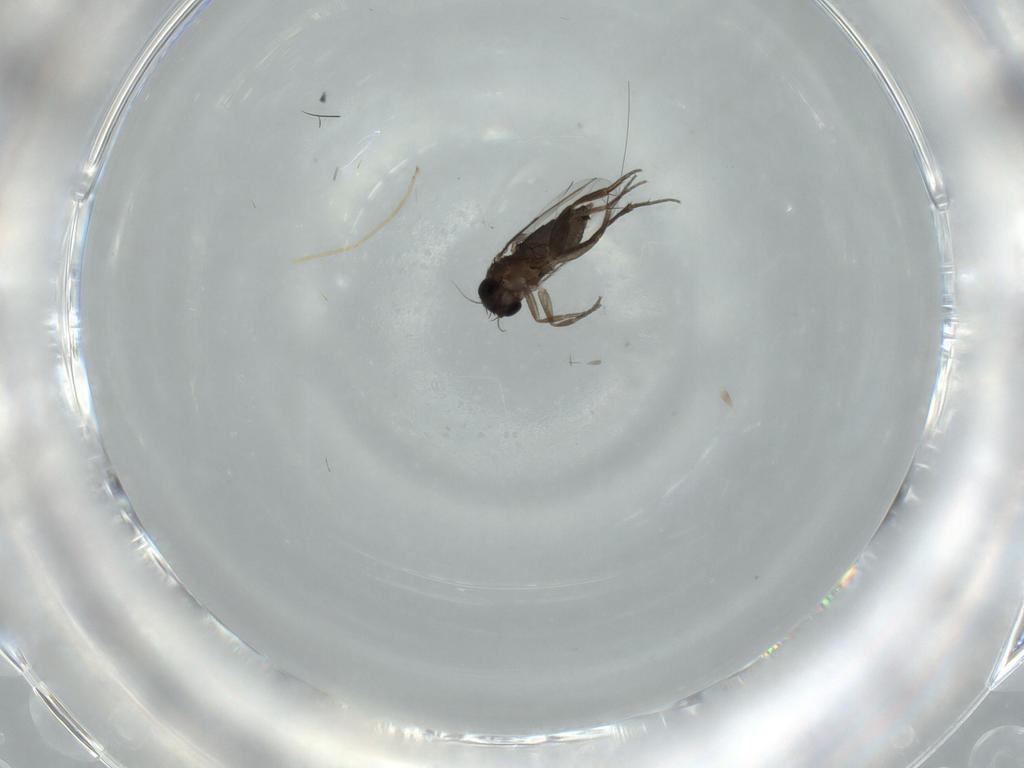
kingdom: Animalia
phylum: Arthropoda
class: Insecta
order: Diptera
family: Chironomidae
